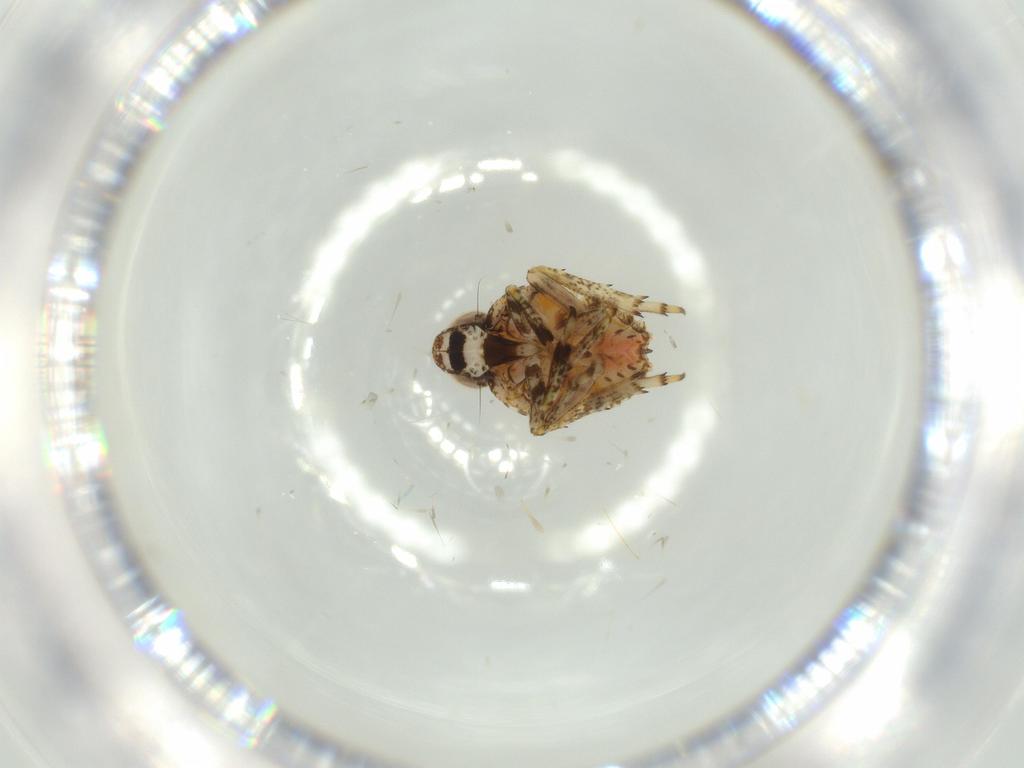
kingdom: Animalia
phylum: Arthropoda
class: Insecta
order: Hemiptera
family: Issidae
